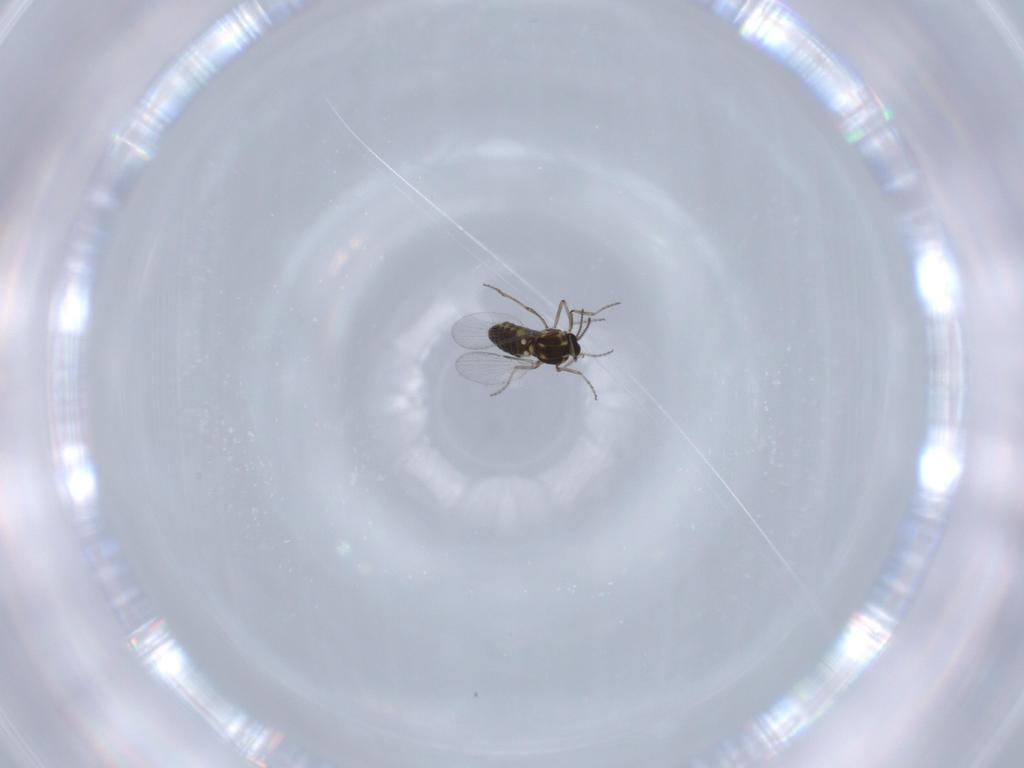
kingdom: Animalia
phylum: Arthropoda
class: Insecta
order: Diptera
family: Ceratopogonidae
